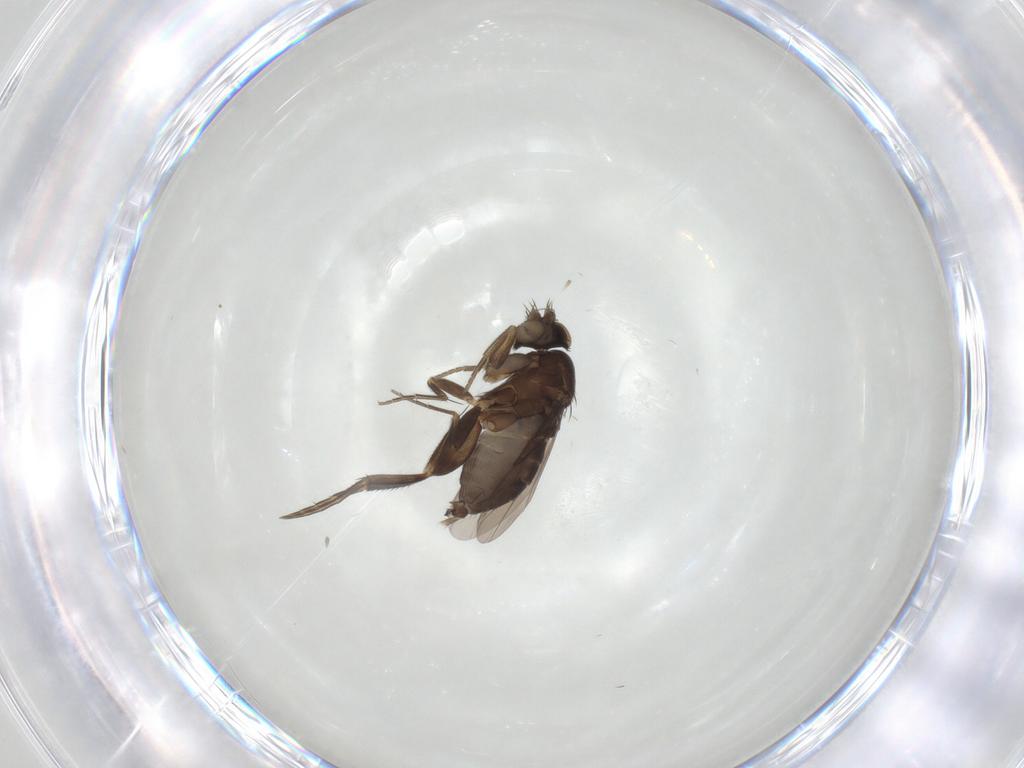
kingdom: Animalia
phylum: Arthropoda
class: Insecta
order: Diptera
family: Phoridae
